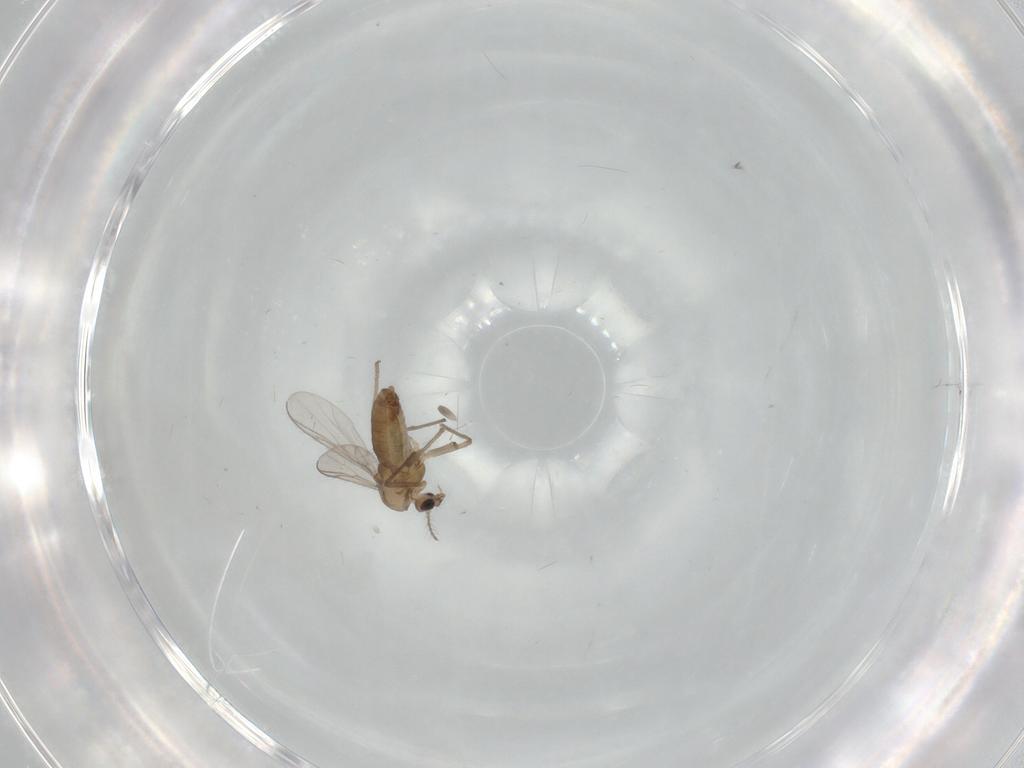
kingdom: Animalia
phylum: Arthropoda
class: Insecta
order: Diptera
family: Chironomidae
